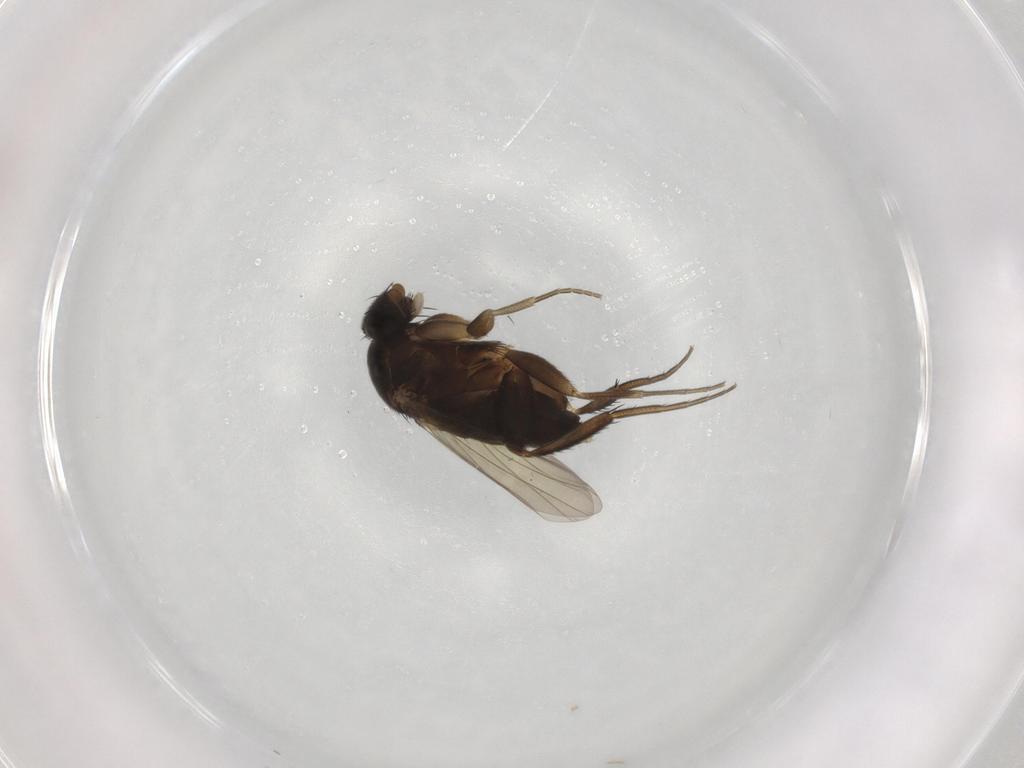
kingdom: Animalia
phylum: Arthropoda
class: Insecta
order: Diptera
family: Phoridae
